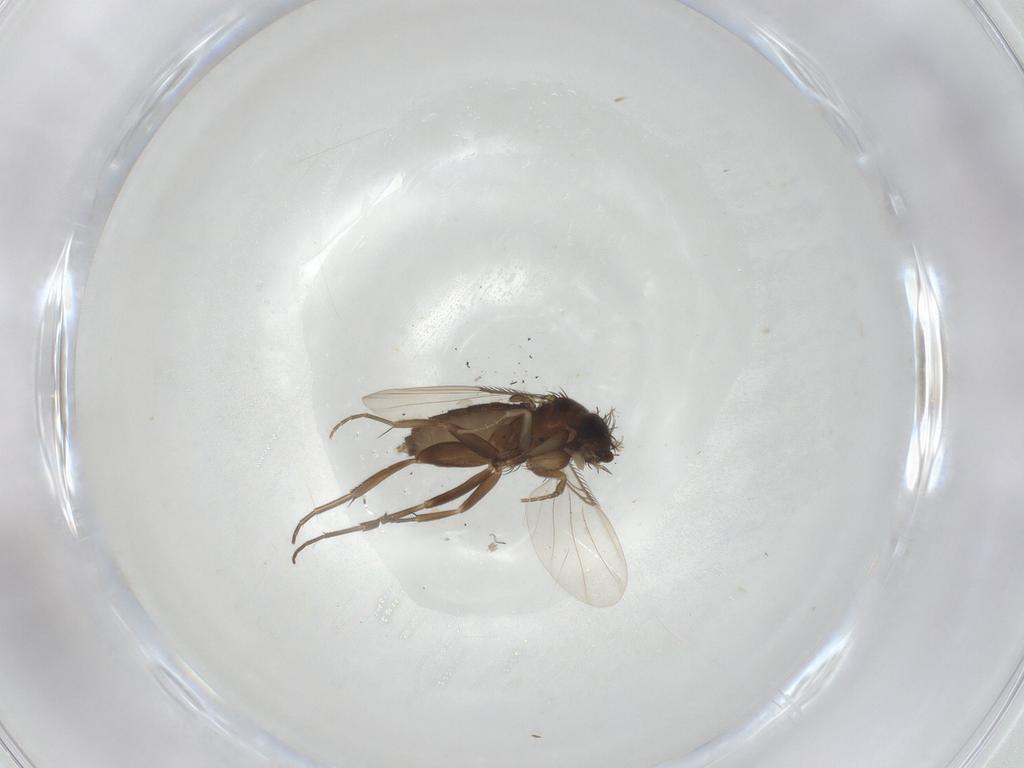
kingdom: Animalia
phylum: Arthropoda
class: Insecta
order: Diptera
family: Phoridae
